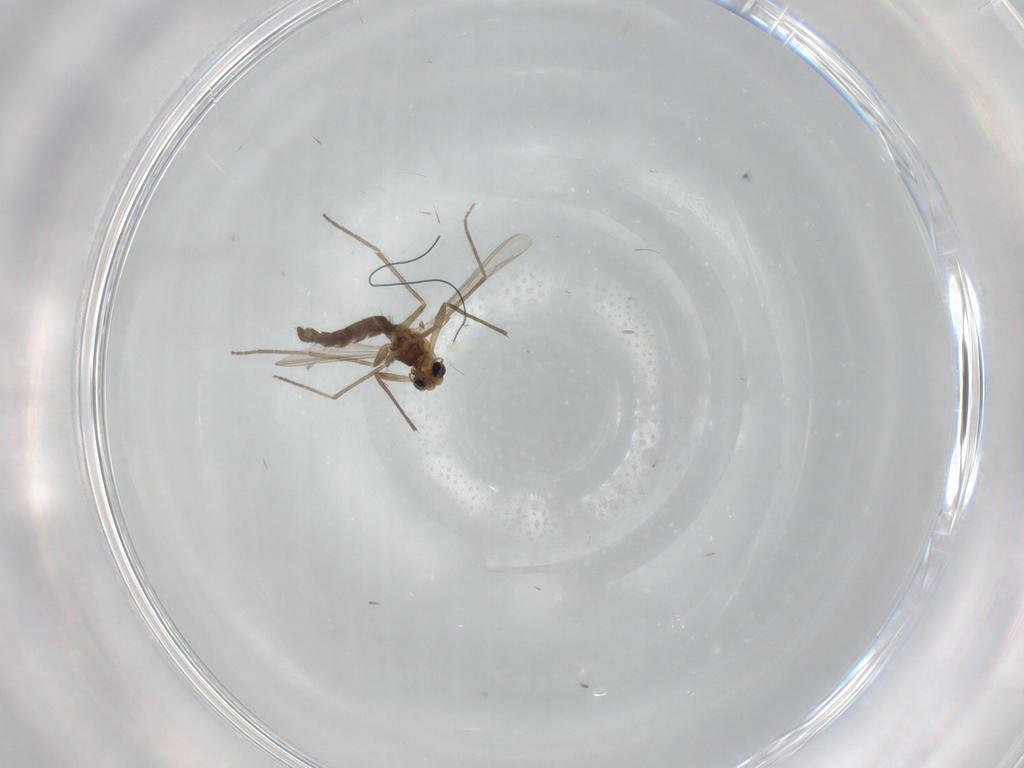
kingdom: Animalia
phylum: Arthropoda
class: Insecta
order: Diptera
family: Chironomidae
